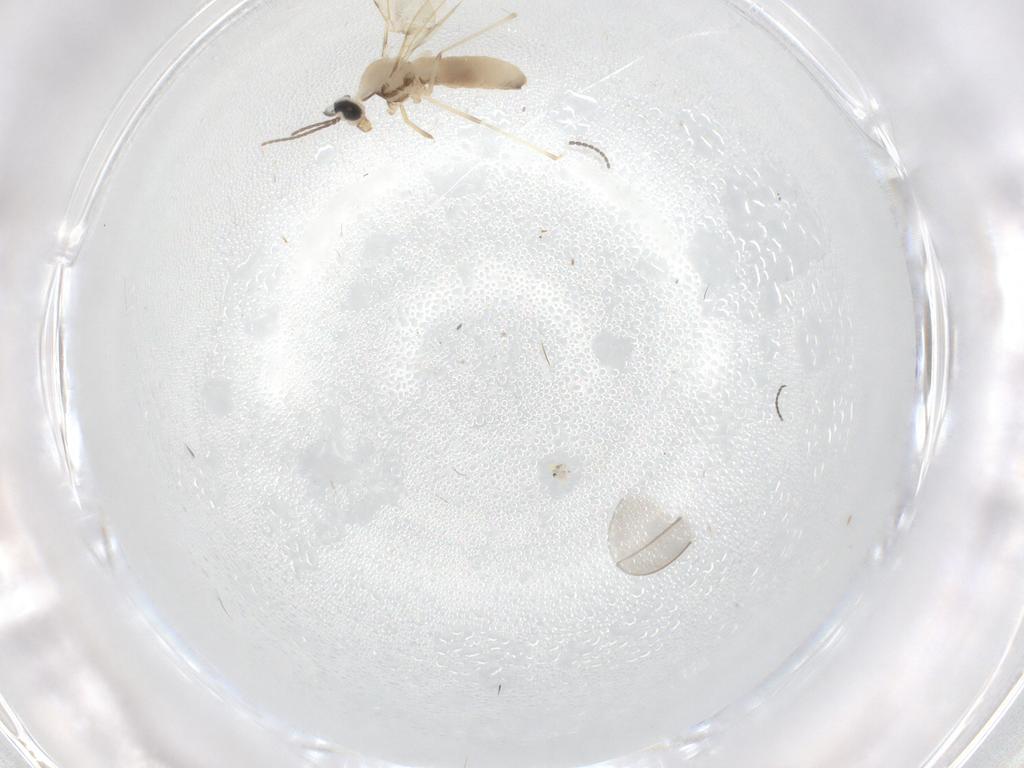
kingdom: Animalia
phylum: Arthropoda
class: Insecta
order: Diptera
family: Cecidomyiidae
